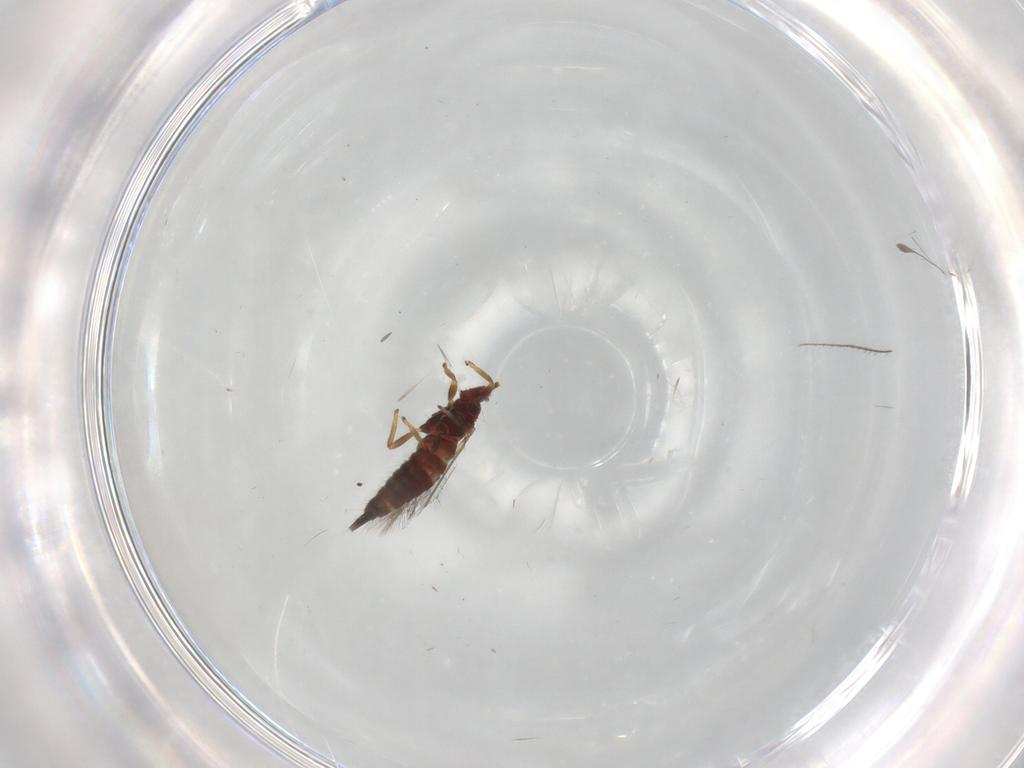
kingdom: Animalia
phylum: Arthropoda
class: Insecta
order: Thysanoptera
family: Phlaeothripidae
